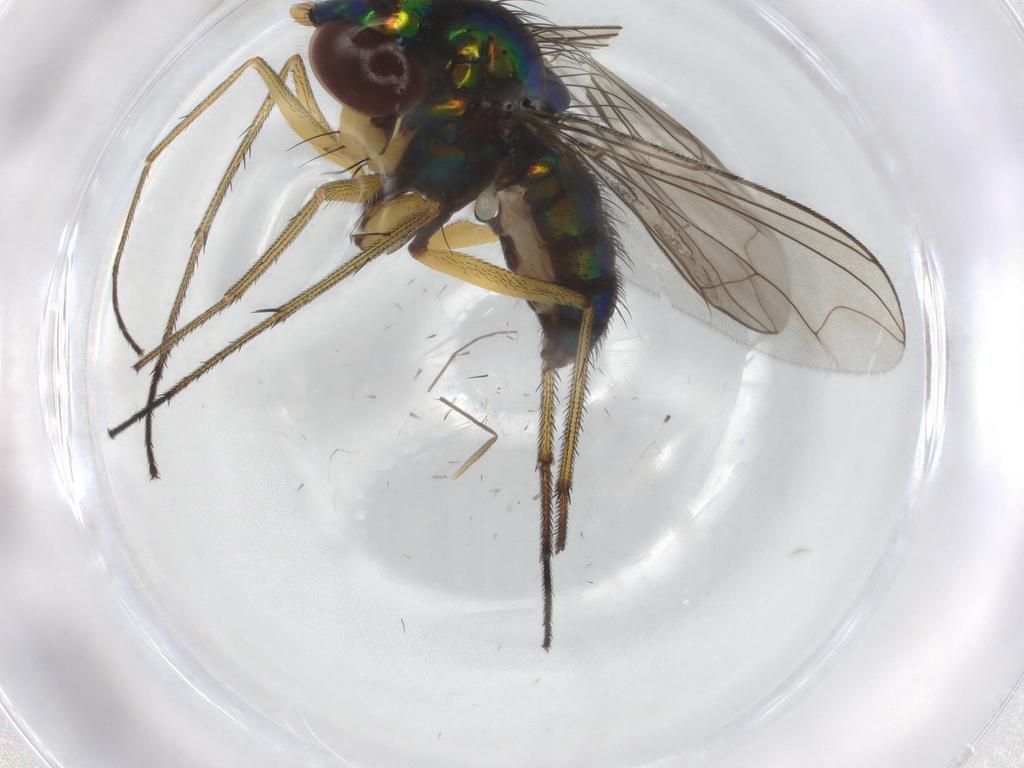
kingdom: Animalia
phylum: Arthropoda
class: Insecta
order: Diptera
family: Dolichopodidae
